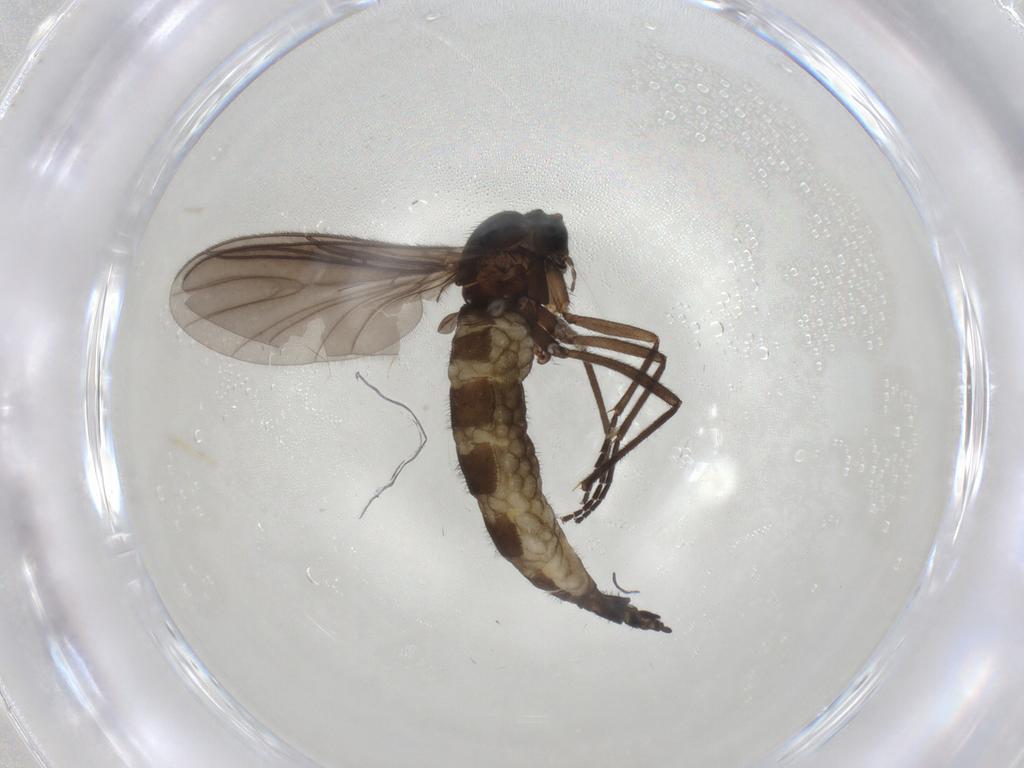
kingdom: Animalia
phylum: Arthropoda
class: Insecta
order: Diptera
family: Sciaridae
